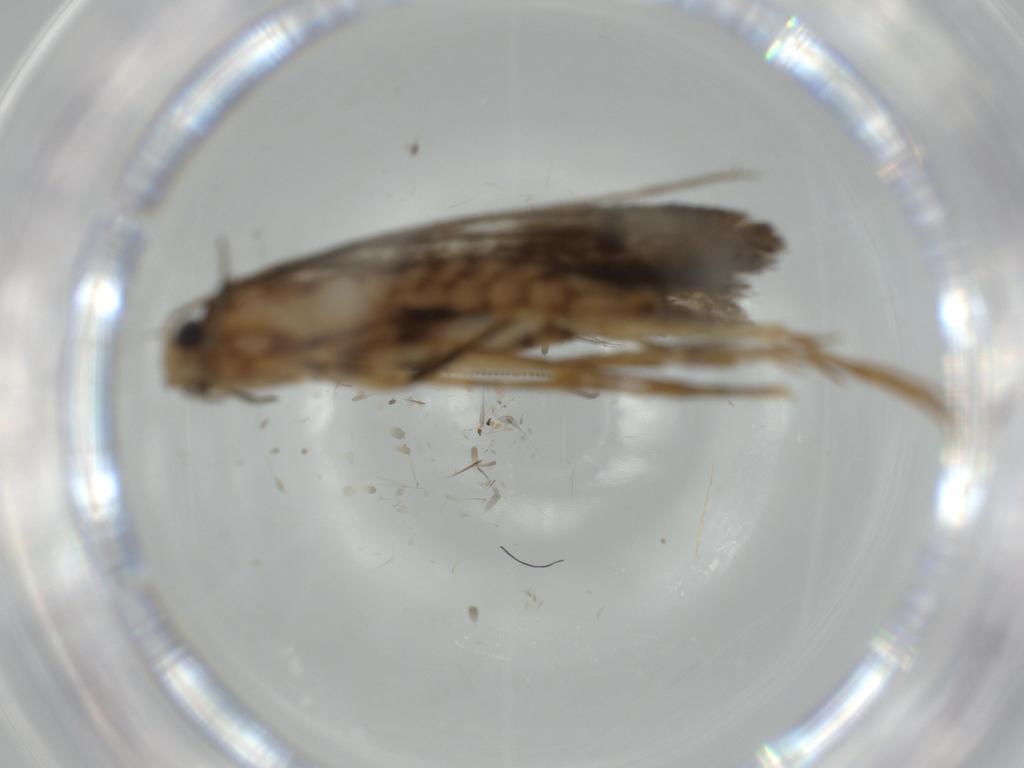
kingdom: Animalia
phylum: Arthropoda
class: Insecta
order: Lepidoptera
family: Tineidae
